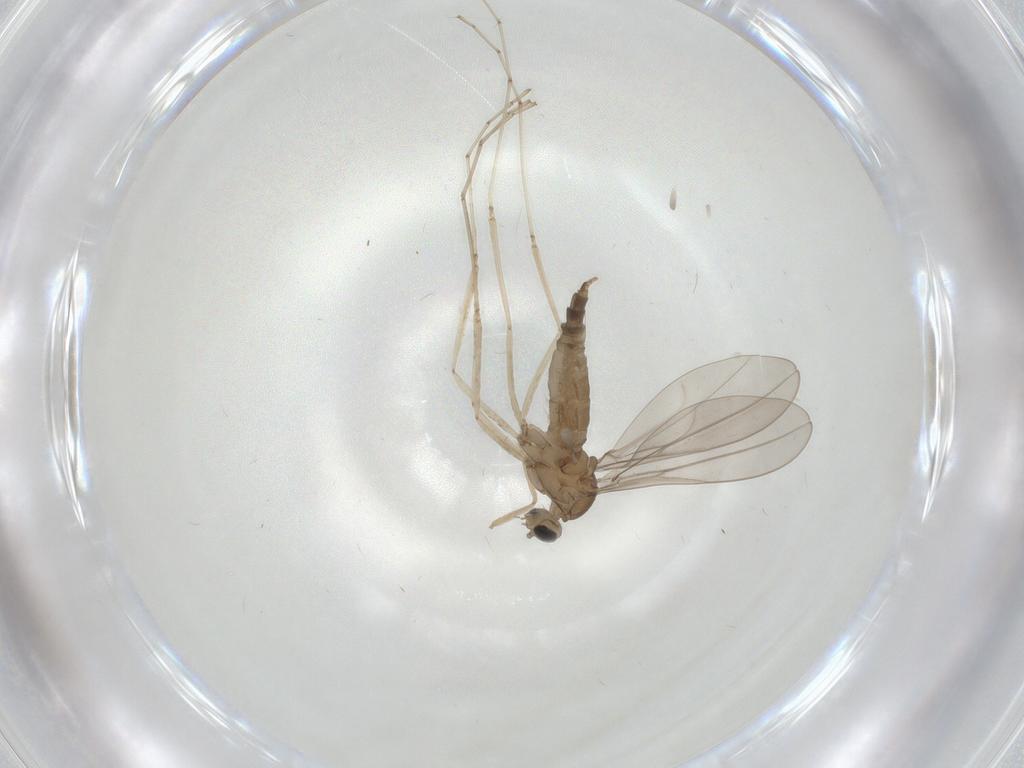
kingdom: Animalia
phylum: Arthropoda
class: Insecta
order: Diptera
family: Cecidomyiidae
